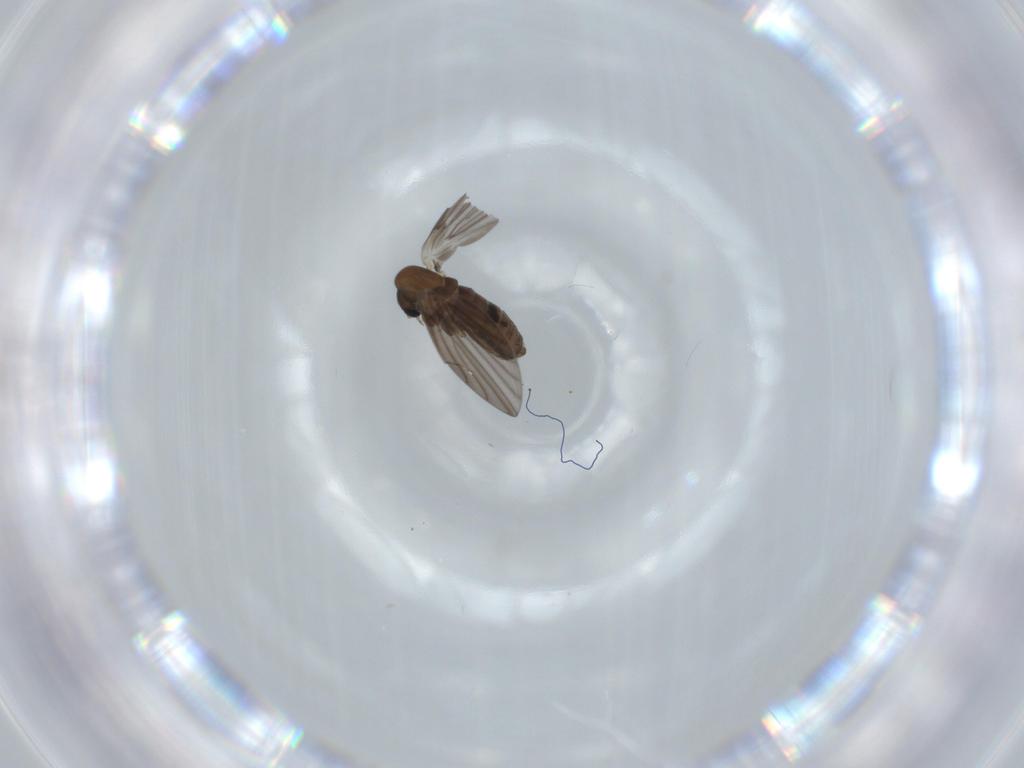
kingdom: Animalia
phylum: Arthropoda
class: Insecta
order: Diptera
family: Psychodidae
